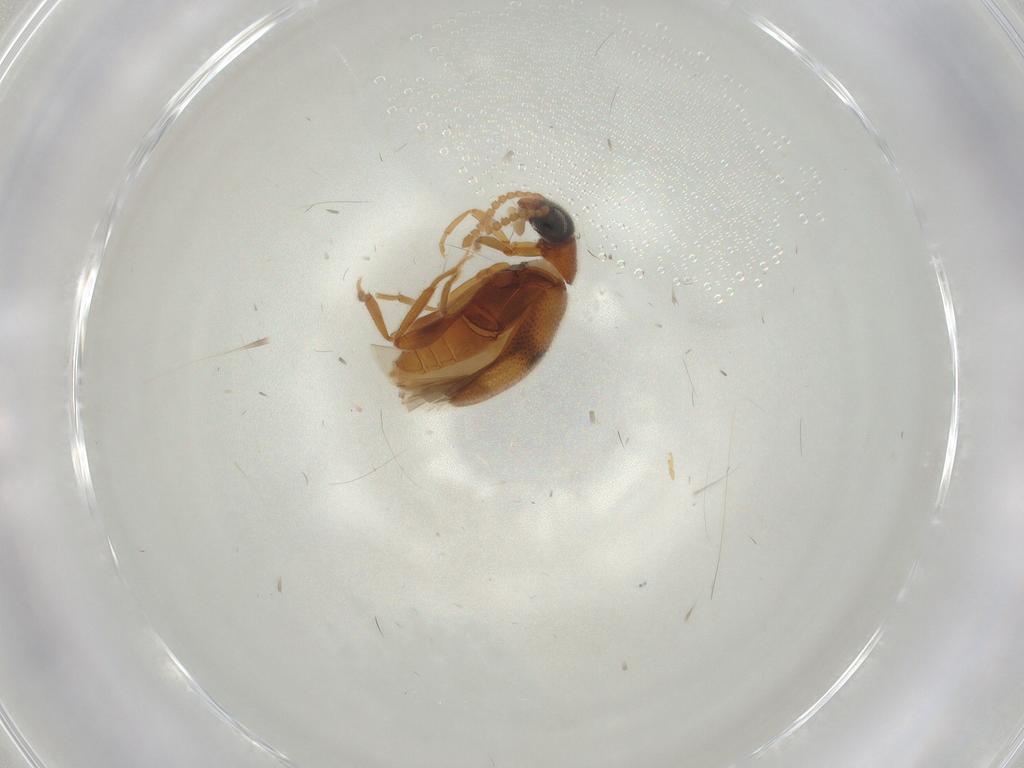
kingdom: Animalia
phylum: Arthropoda
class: Insecta
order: Coleoptera
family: Aderidae
